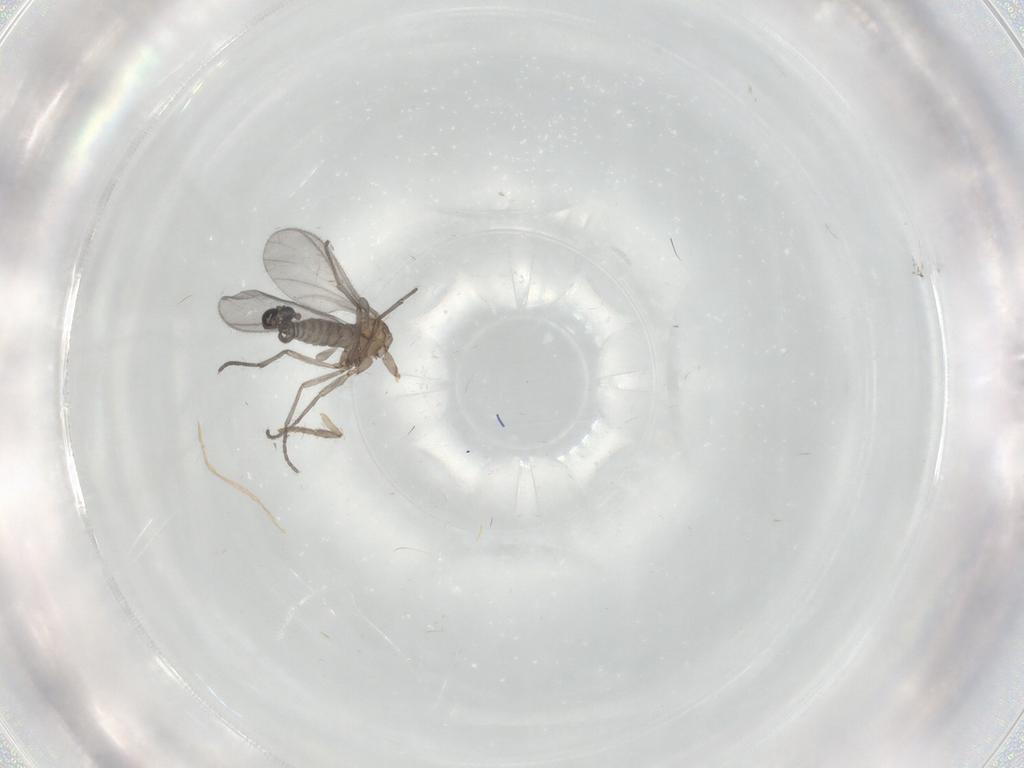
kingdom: Animalia
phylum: Arthropoda
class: Insecta
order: Diptera
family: Sciaridae
